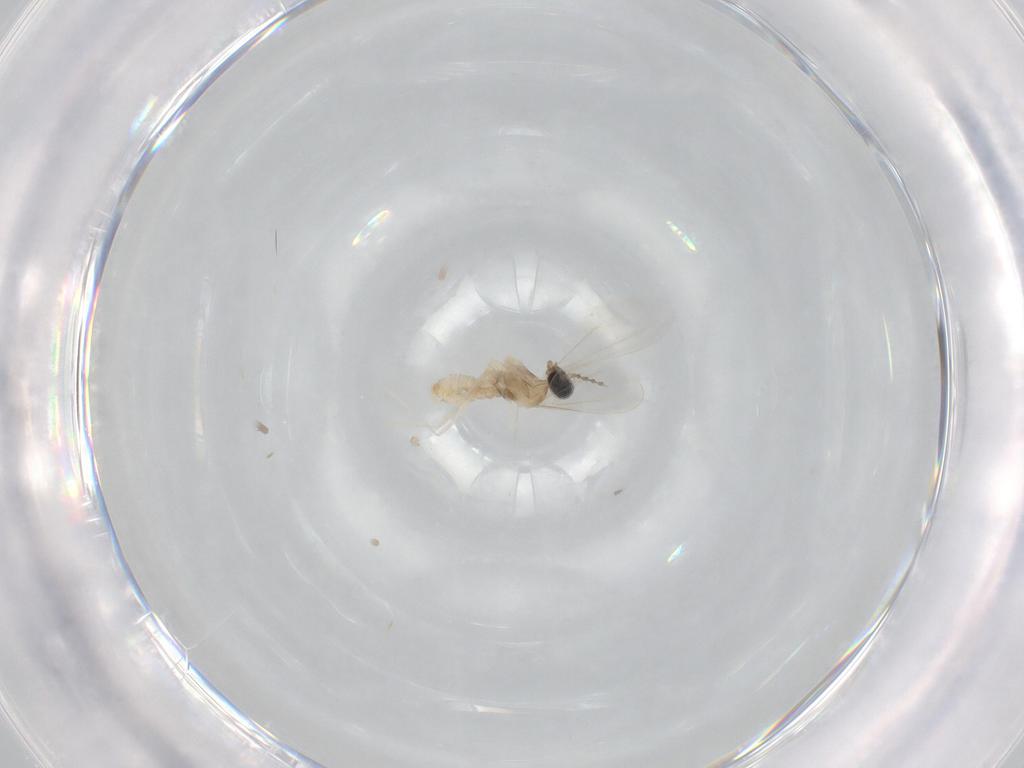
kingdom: Animalia
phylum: Arthropoda
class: Insecta
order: Diptera
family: Cecidomyiidae
